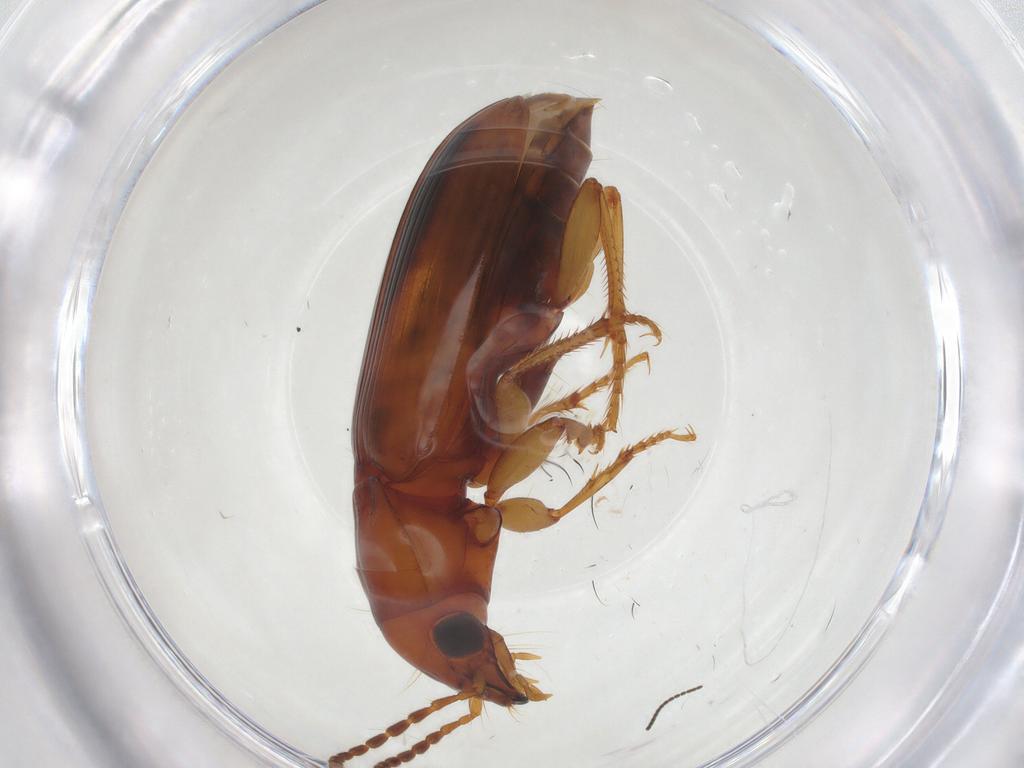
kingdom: Animalia
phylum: Arthropoda
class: Insecta
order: Coleoptera
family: Carabidae
